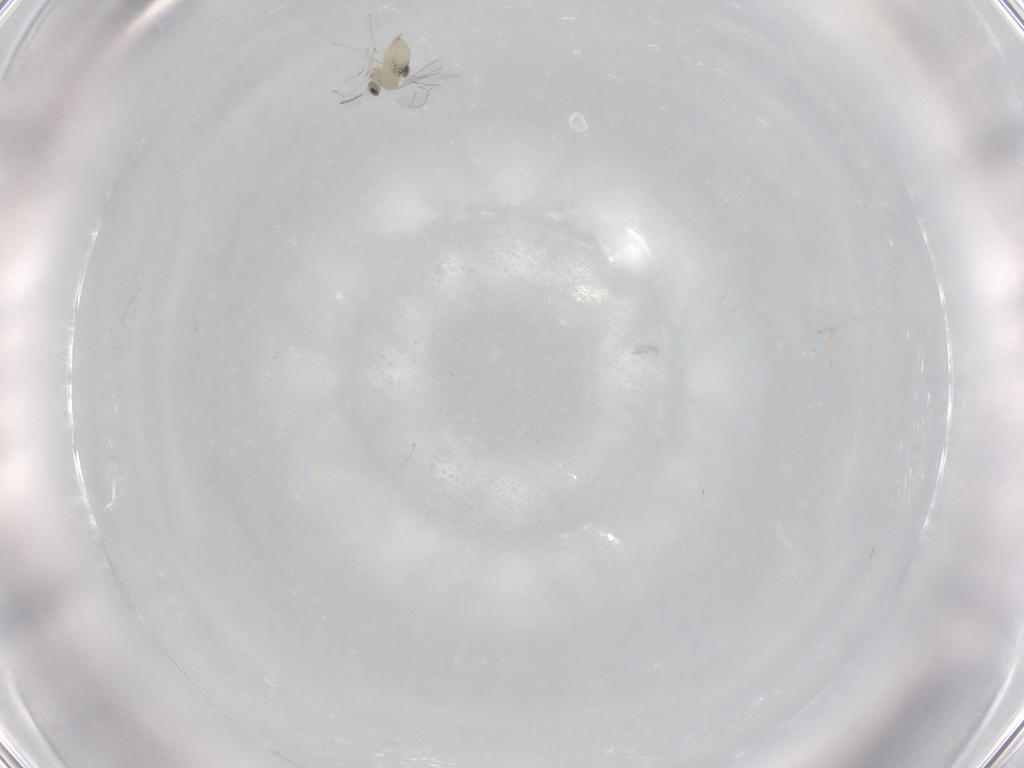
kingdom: Animalia
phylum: Arthropoda
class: Insecta
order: Diptera
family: Cecidomyiidae
